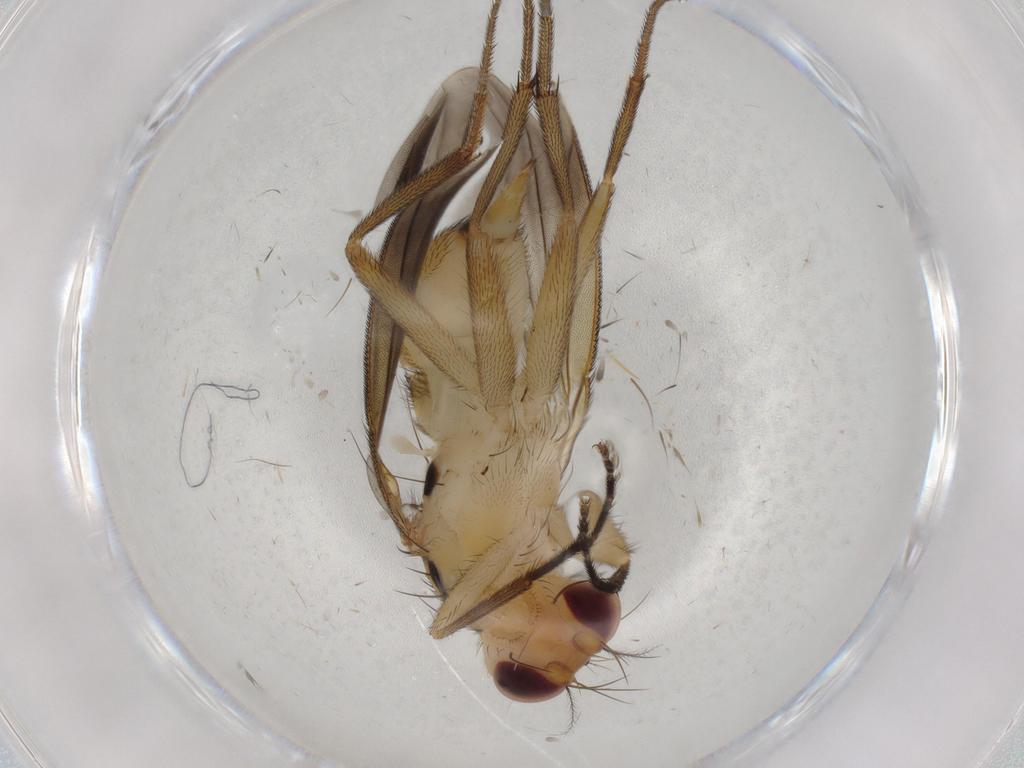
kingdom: Animalia
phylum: Arthropoda
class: Insecta
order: Diptera
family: Clusiidae
